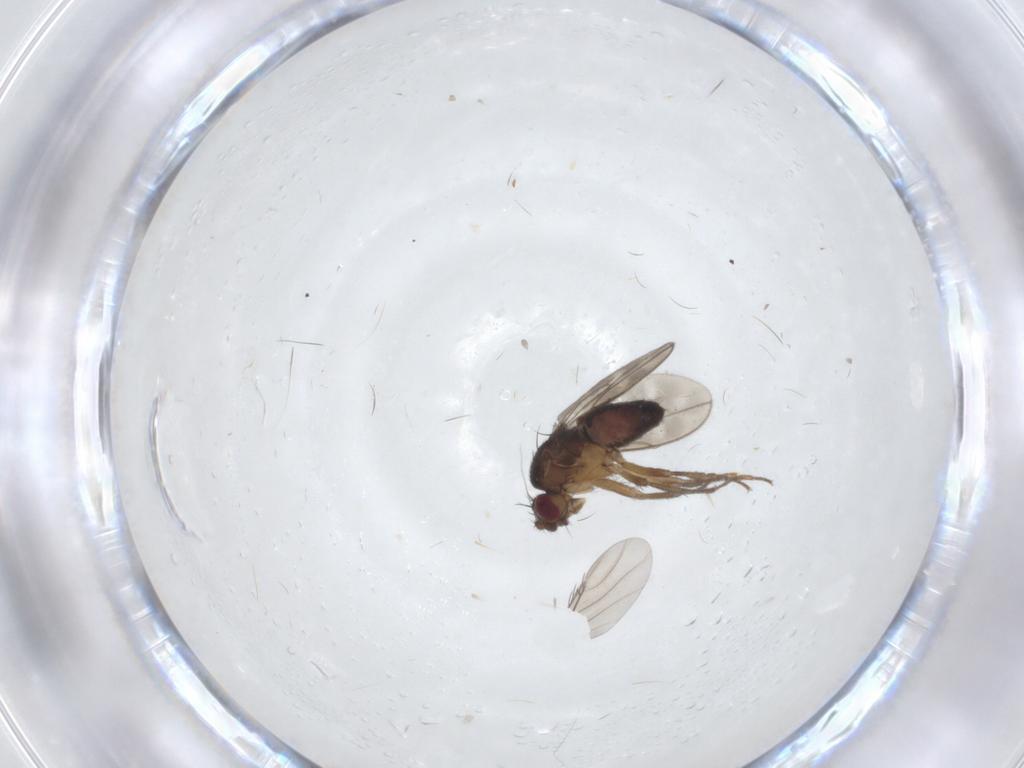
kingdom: Animalia
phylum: Arthropoda
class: Insecta
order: Diptera
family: Sphaeroceridae
